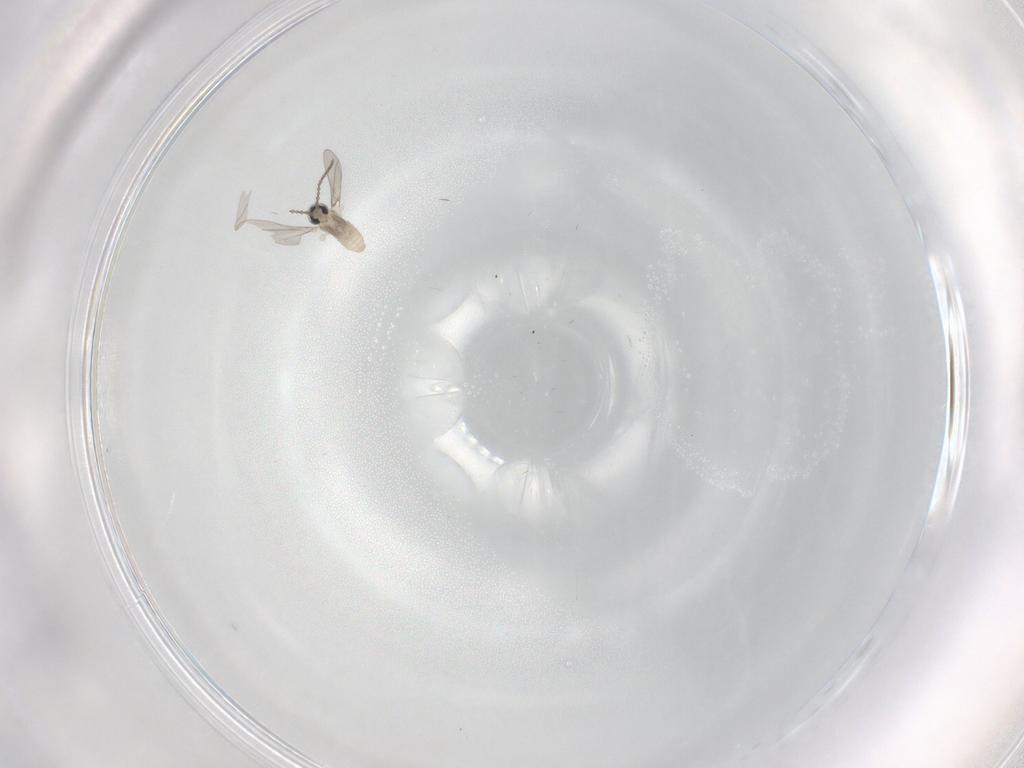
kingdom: Animalia
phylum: Arthropoda
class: Insecta
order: Diptera
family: Cecidomyiidae
